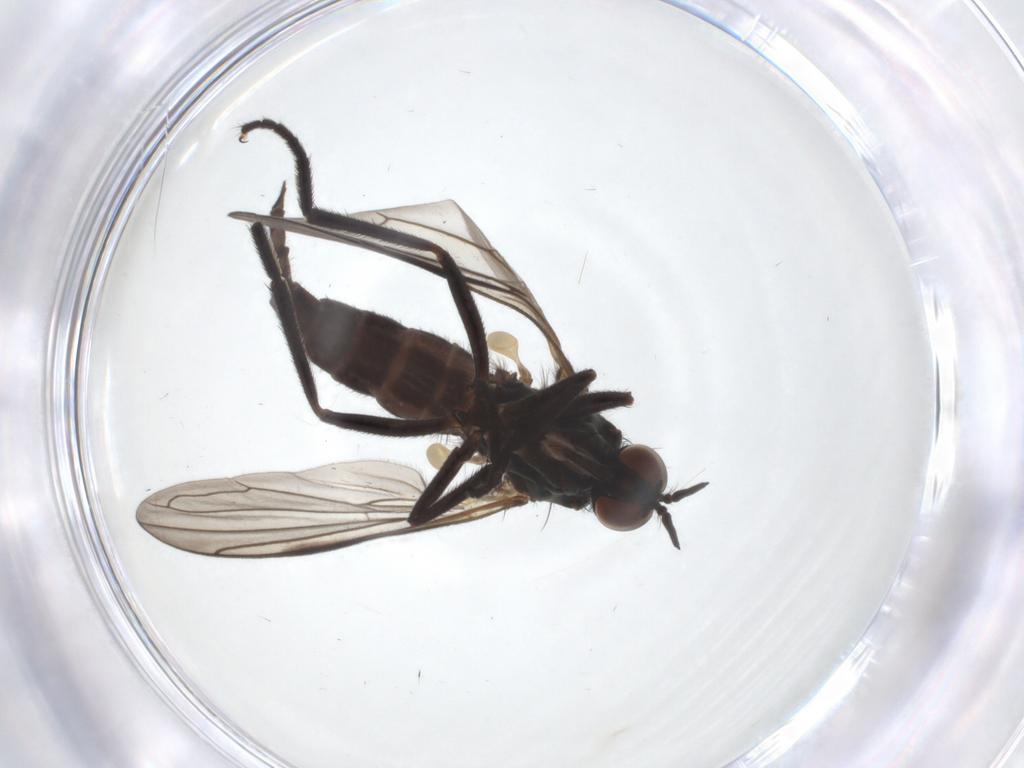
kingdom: Animalia
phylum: Arthropoda
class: Insecta
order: Diptera
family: Empididae
